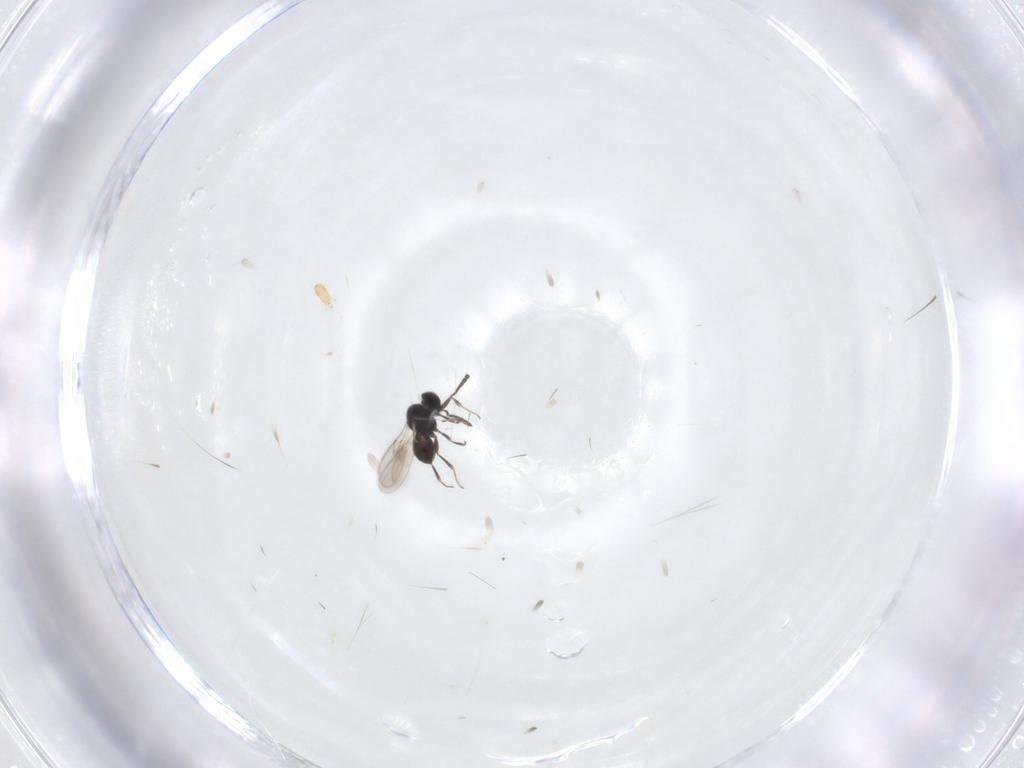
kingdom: Animalia
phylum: Arthropoda
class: Insecta
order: Hymenoptera
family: Scelionidae
